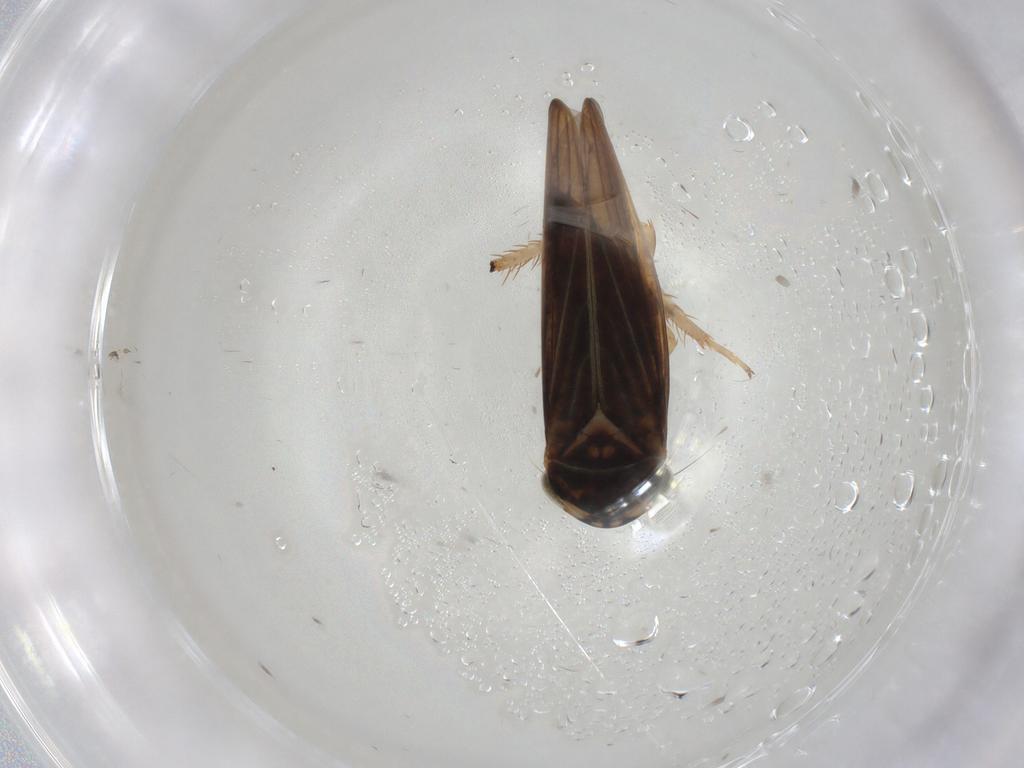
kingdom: Animalia
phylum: Arthropoda
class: Insecta
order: Hemiptera
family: Cicadellidae
